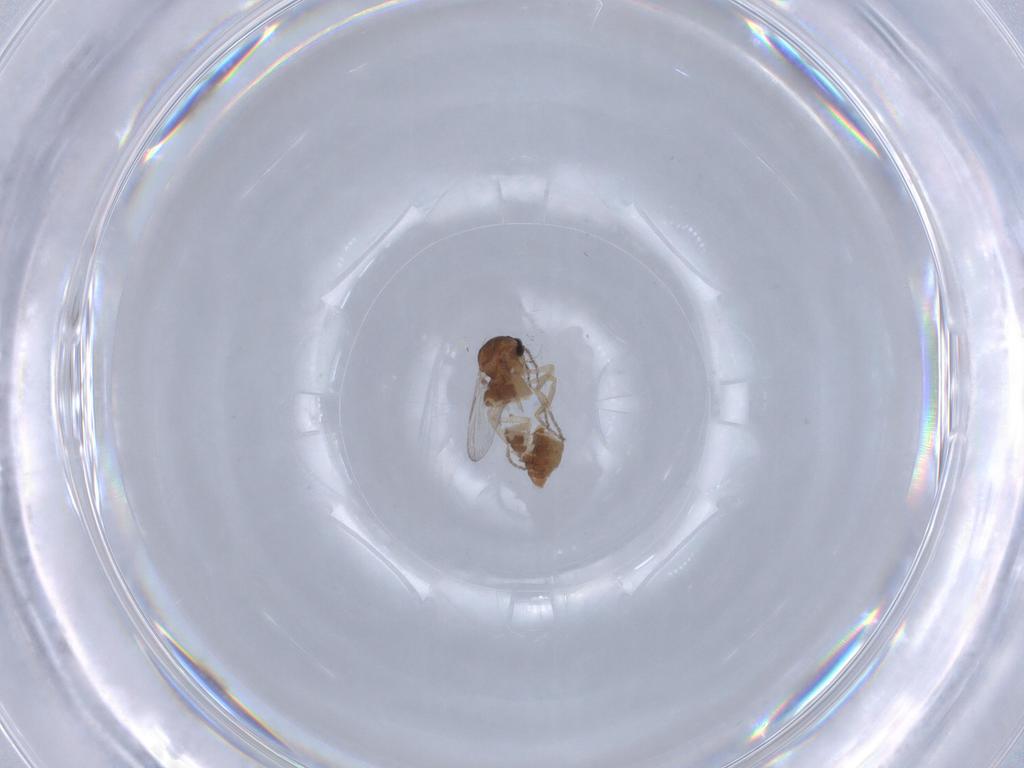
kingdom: Animalia
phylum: Arthropoda
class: Insecta
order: Diptera
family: Ceratopogonidae
